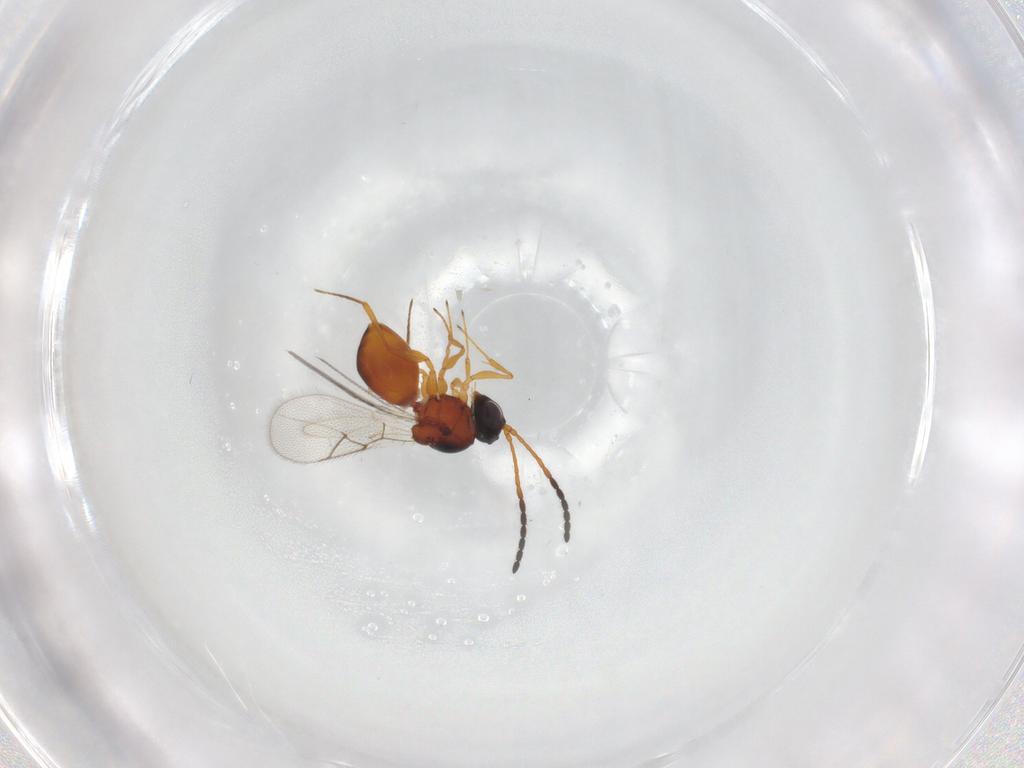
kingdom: Animalia
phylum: Arthropoda
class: Insecta
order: Hymenoptera
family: Figitidae
